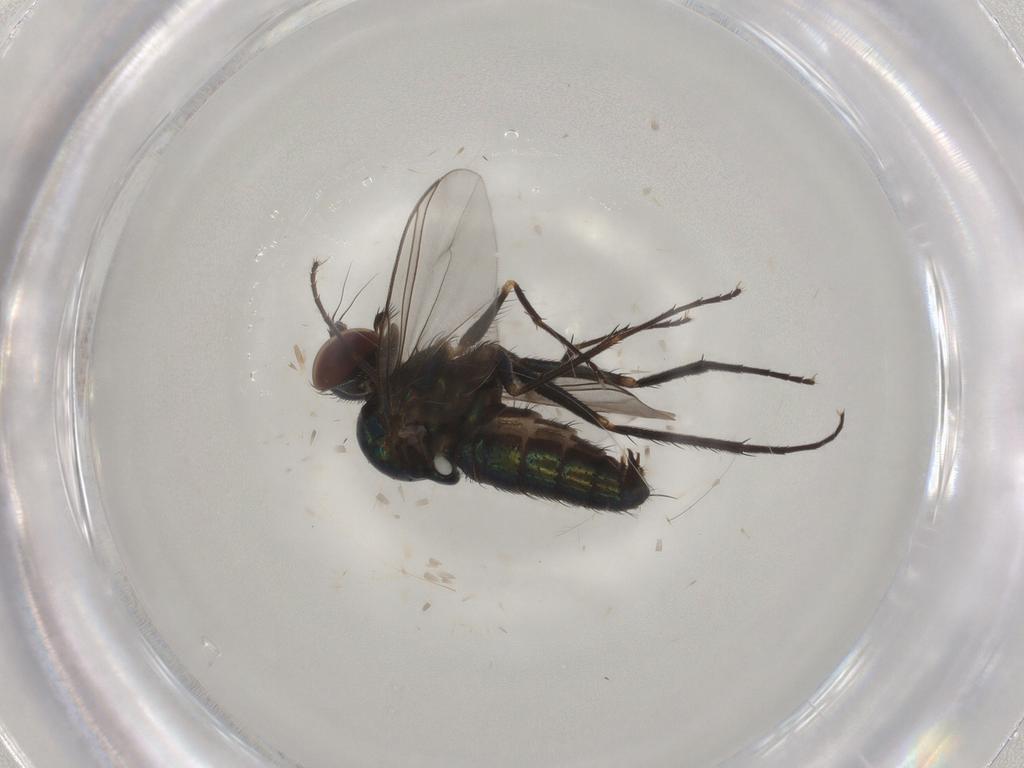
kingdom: Animalia
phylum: Arthropoda
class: Insecta
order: Diptera
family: Dolichopodidae
